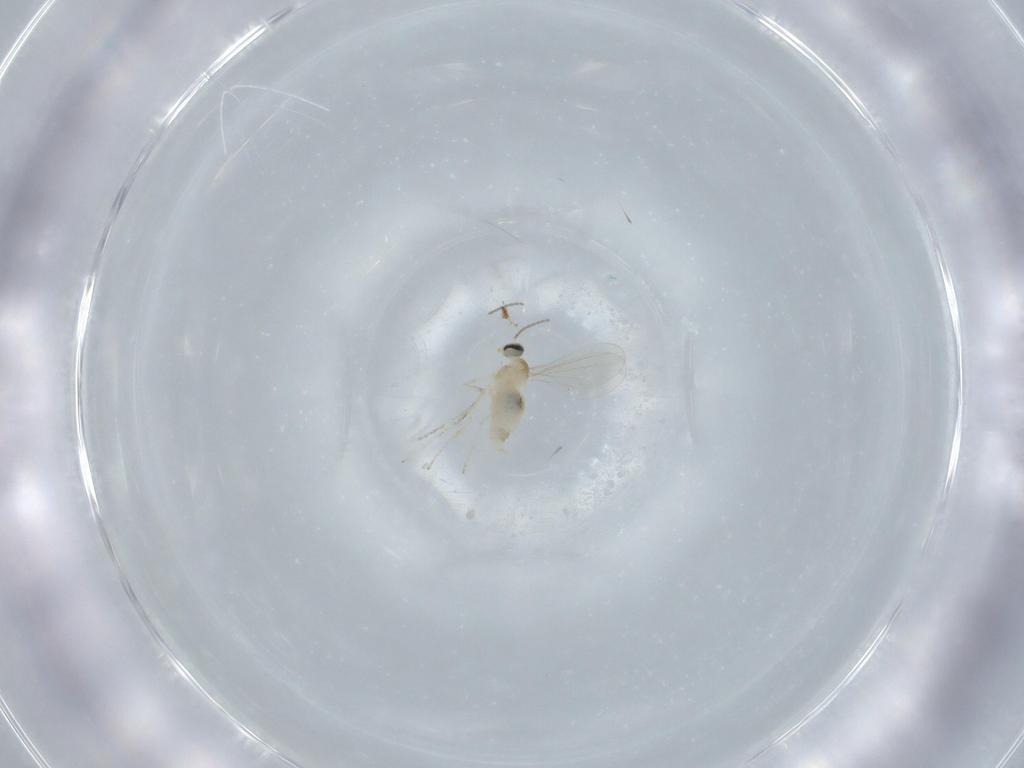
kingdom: Animalia
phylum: Arthropoda
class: Insecta
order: Diptera
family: Cecidomyiidae
